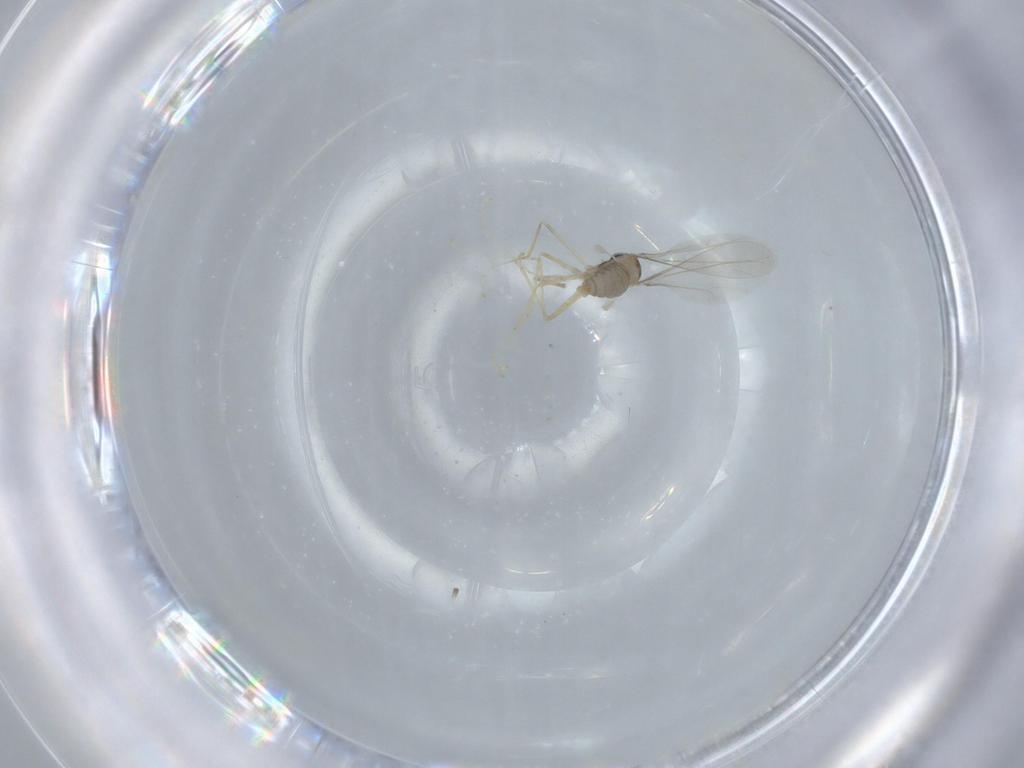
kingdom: Animalia
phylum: Arthropoda
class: Insecta
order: Diptera
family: Cecidomyiidae
